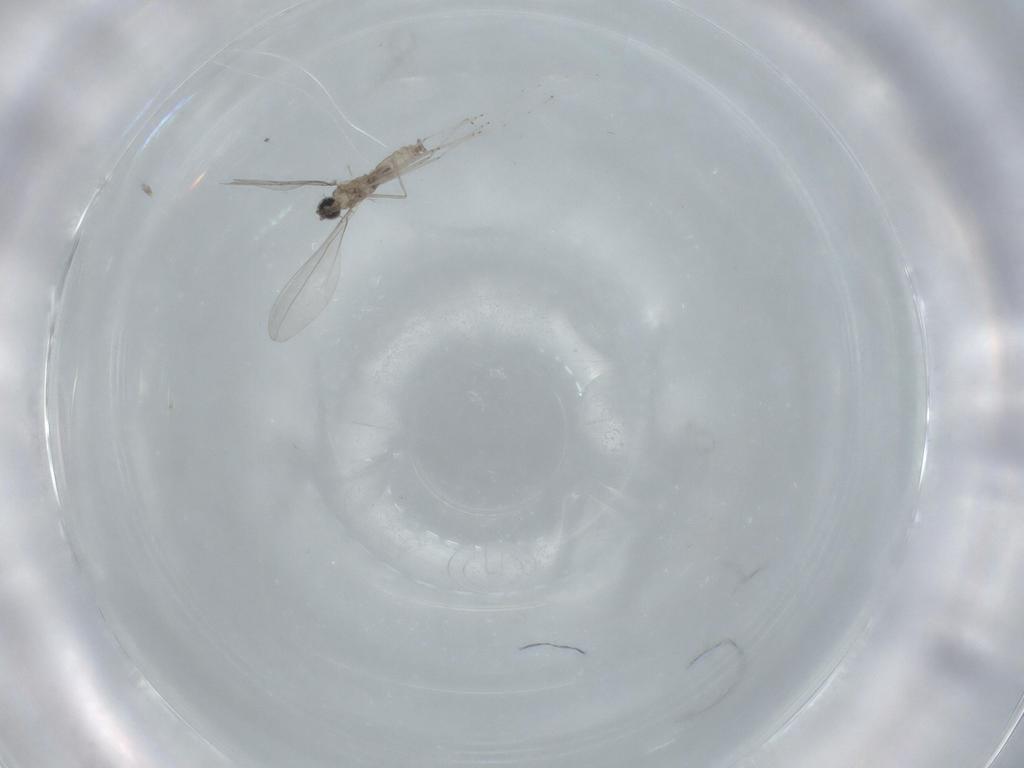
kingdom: Animalia
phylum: Arthropoda
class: Insecta
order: Diptera
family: Cecidomyiidae
